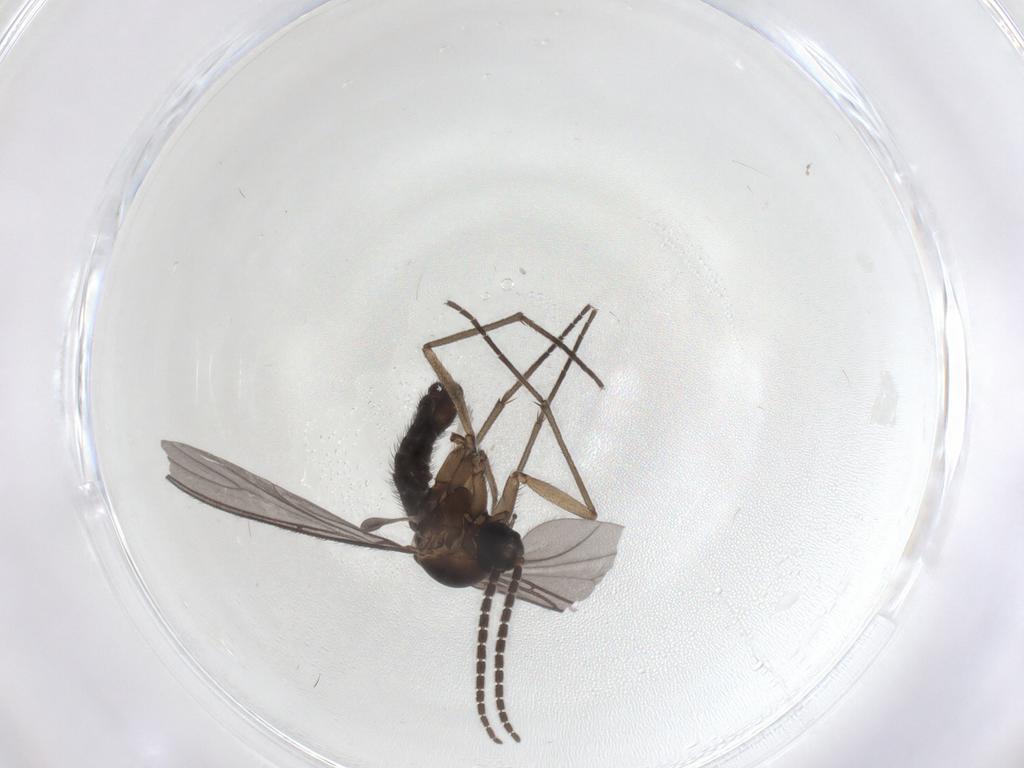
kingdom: Animalia
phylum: Arthropoda
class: Insecta
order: Diptera
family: Sciaridae
